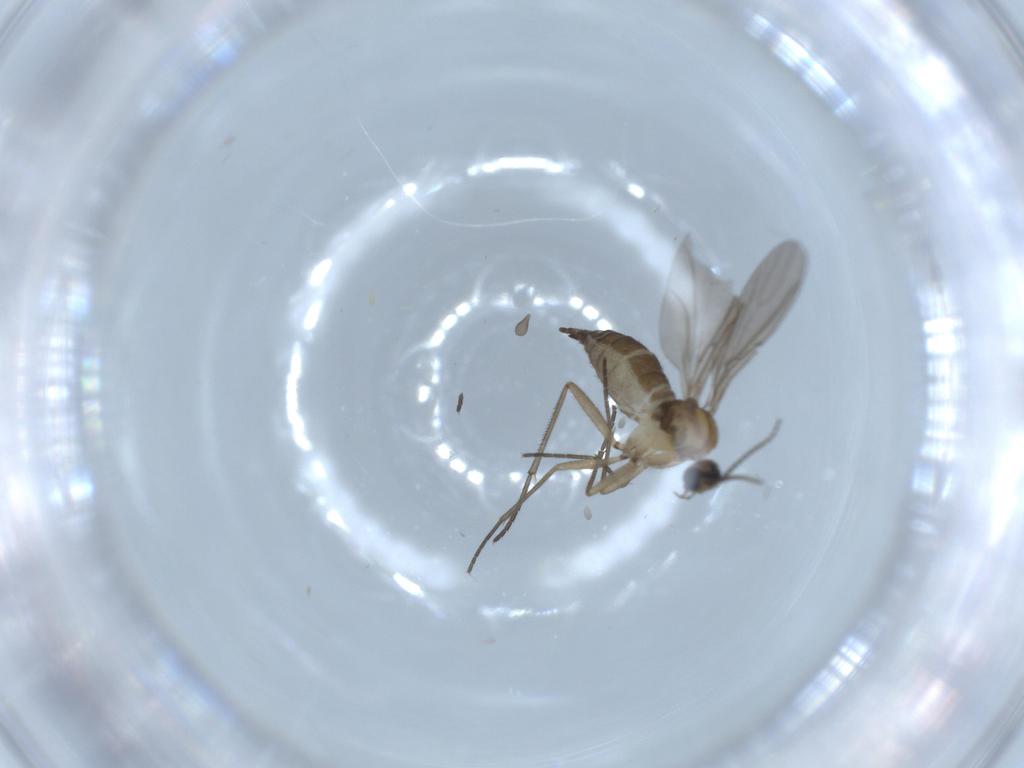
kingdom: Animalia
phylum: Arthropoda
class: Insecta
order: Diptera
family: Sciaridae
